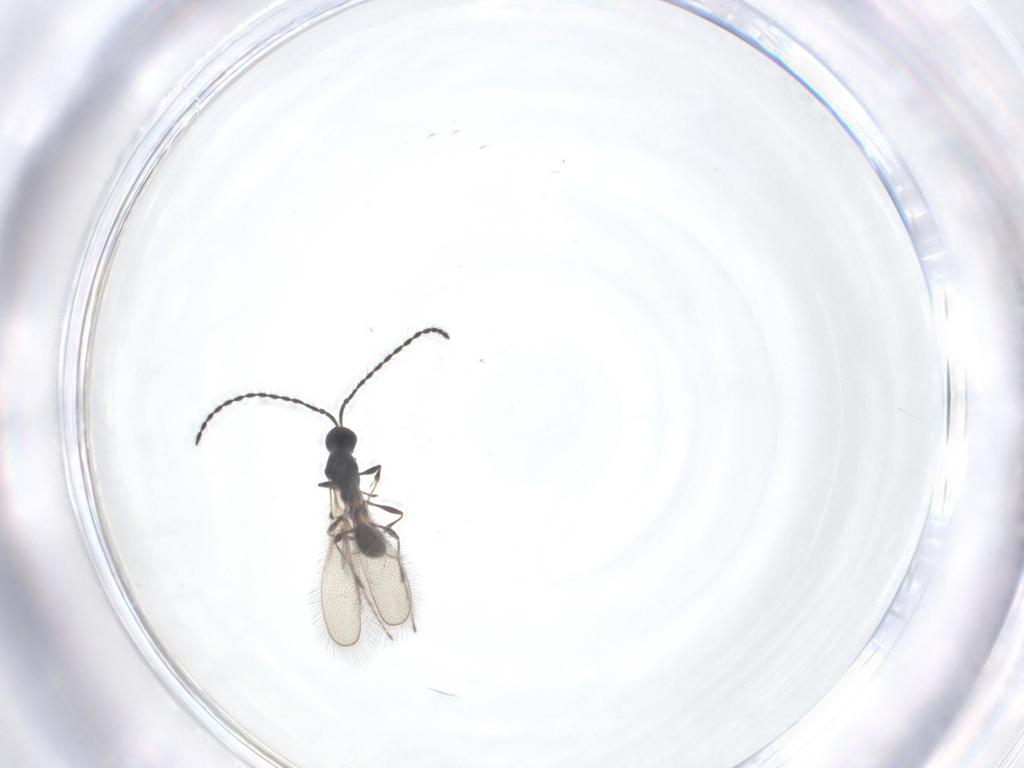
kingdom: Animalia
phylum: Arthropoda
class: Insecta
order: Hymenoptera
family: Diapriidae
